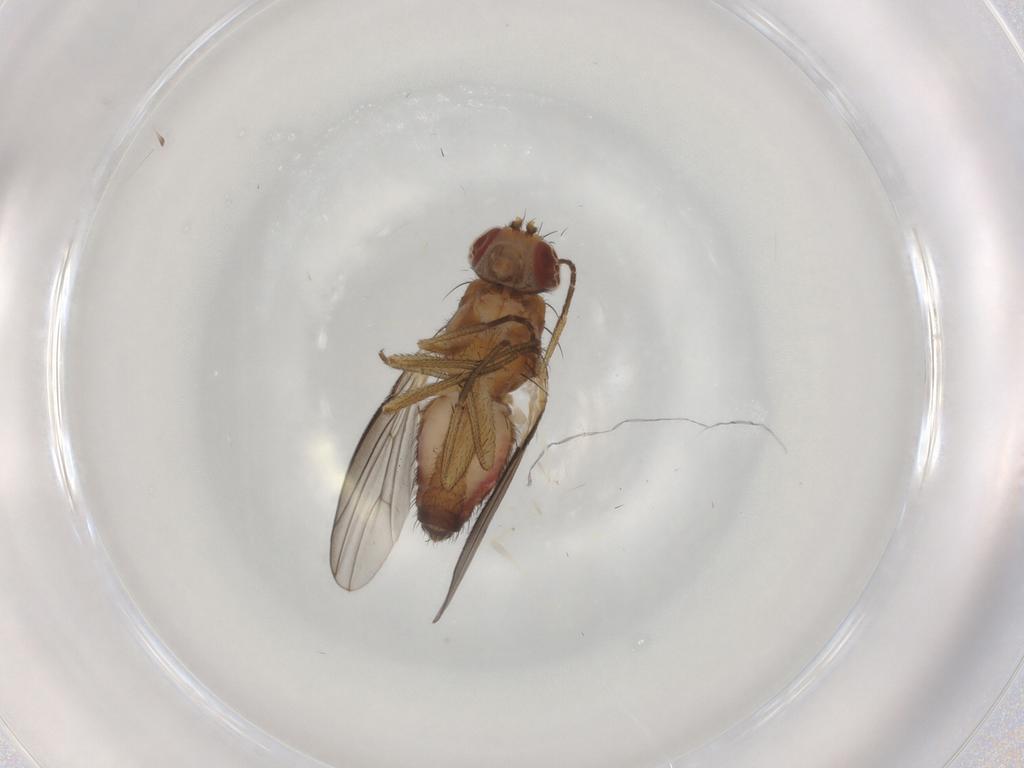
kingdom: Animalia
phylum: Arthropoda
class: Insecta
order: Diptera
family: Heleomyzidae
